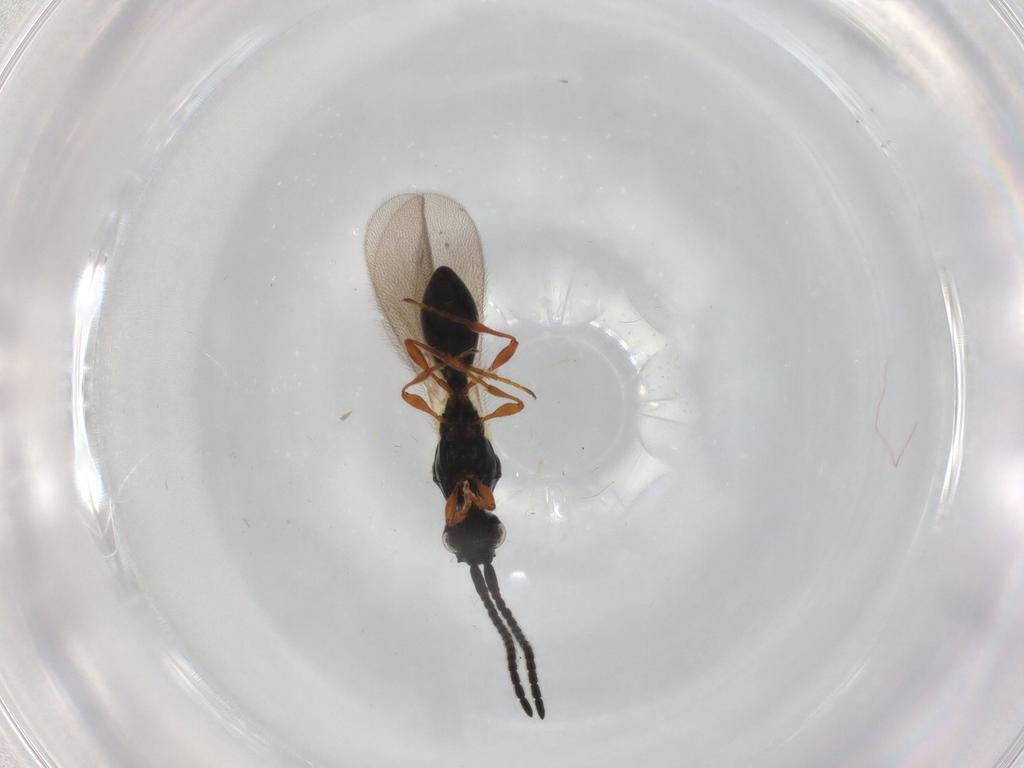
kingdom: Animalia
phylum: Arthropoda
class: Insecta
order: Hymenoptera
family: Diapriidae
